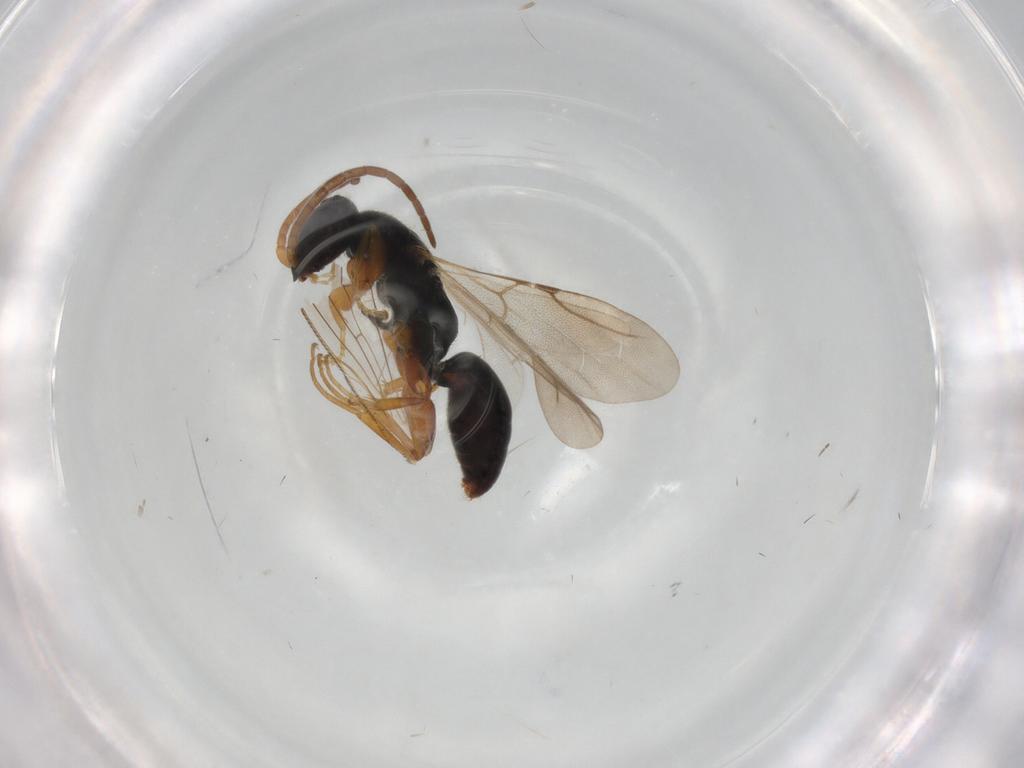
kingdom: Animalia
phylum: Arthropoda
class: Insecta
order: Hymenoptera
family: Bethylidae
